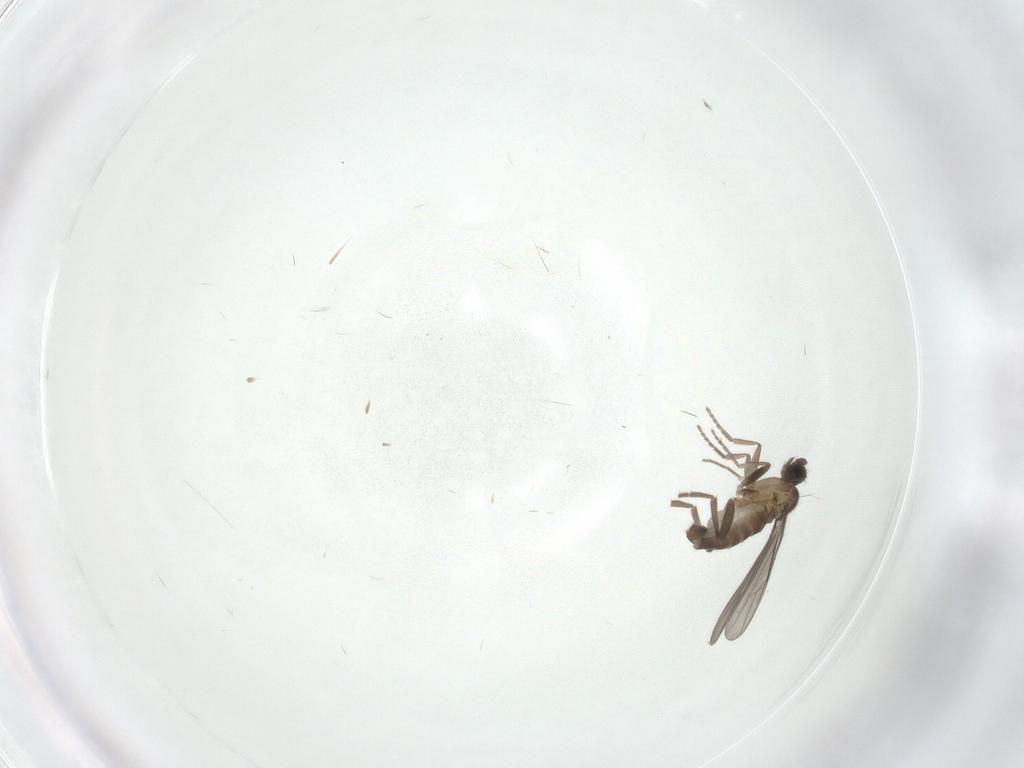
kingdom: Animalia
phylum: Arthropoda
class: Insecta
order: Diptera
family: Phoridae
